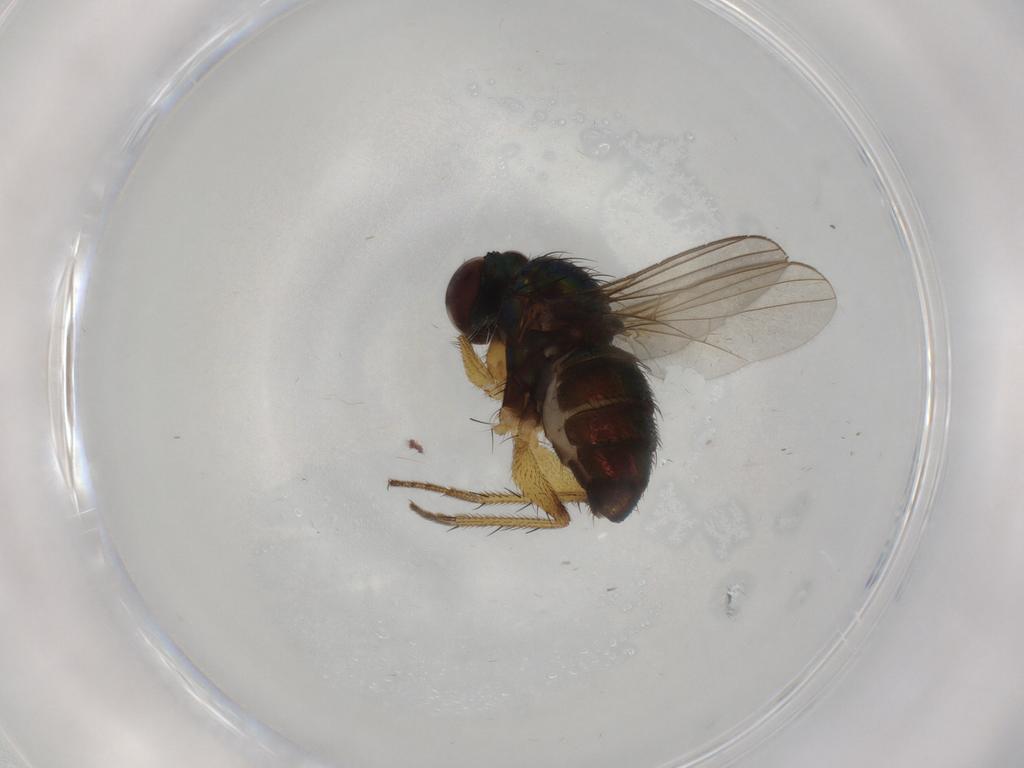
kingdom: Animalia
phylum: Arthropoda
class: Insecta
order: Diptera
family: Dolichopodidae
